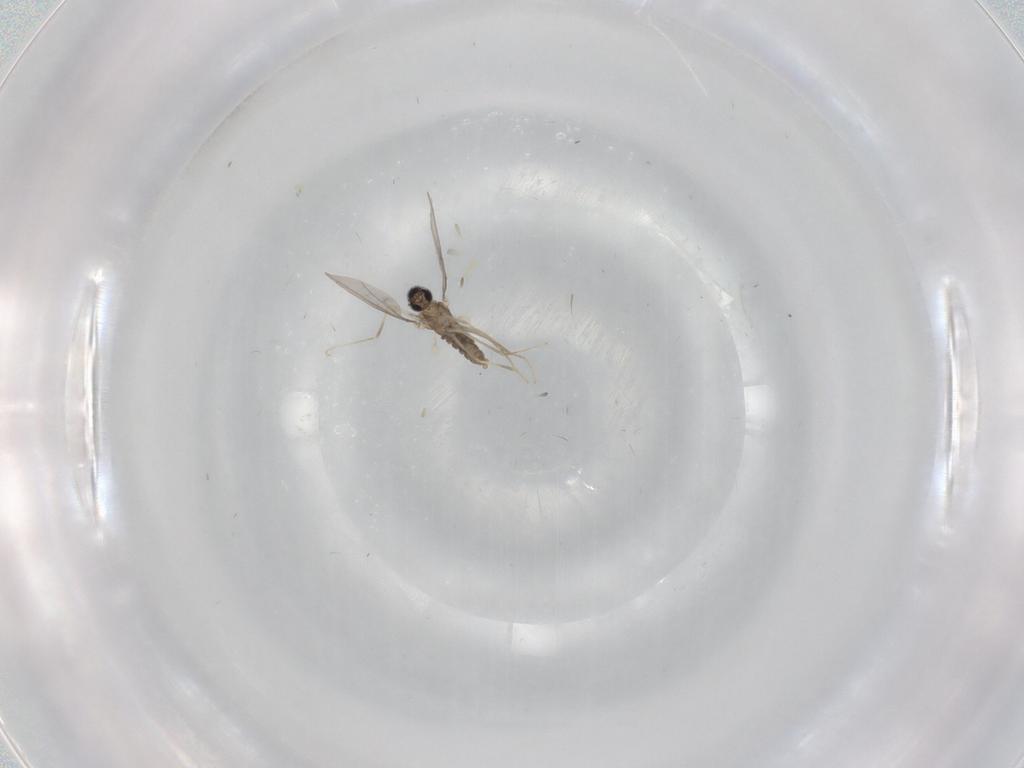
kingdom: Animalia
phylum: Arthropoda
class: Insecta
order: Diptera
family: Cecidomyiidae
